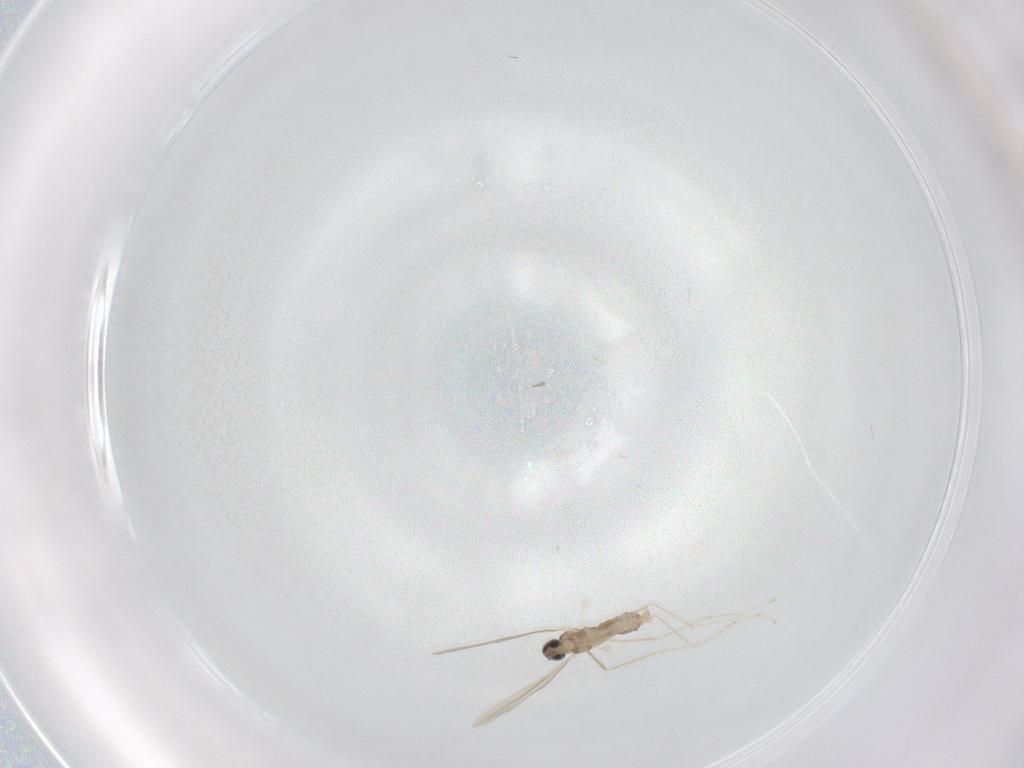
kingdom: Animalia
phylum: Arthropoda
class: Insecta
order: Diptera
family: Cecidomyiidae
